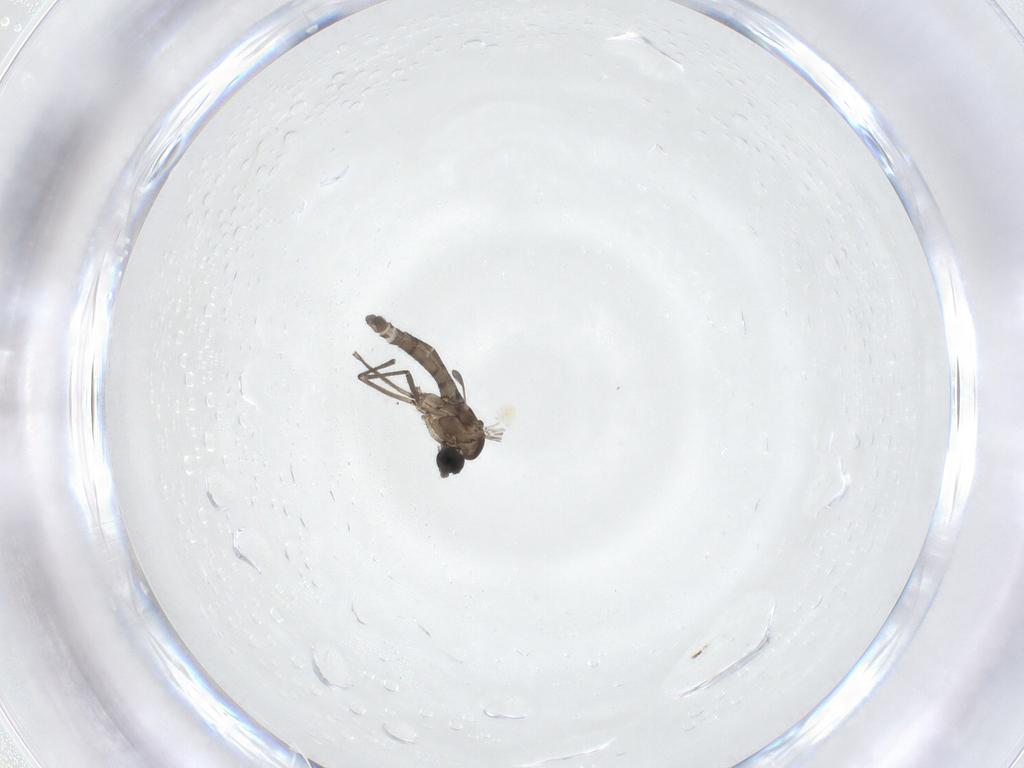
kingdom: Animalia
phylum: Arthropoda
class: Insecta
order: Diptera
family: Sciaridae
